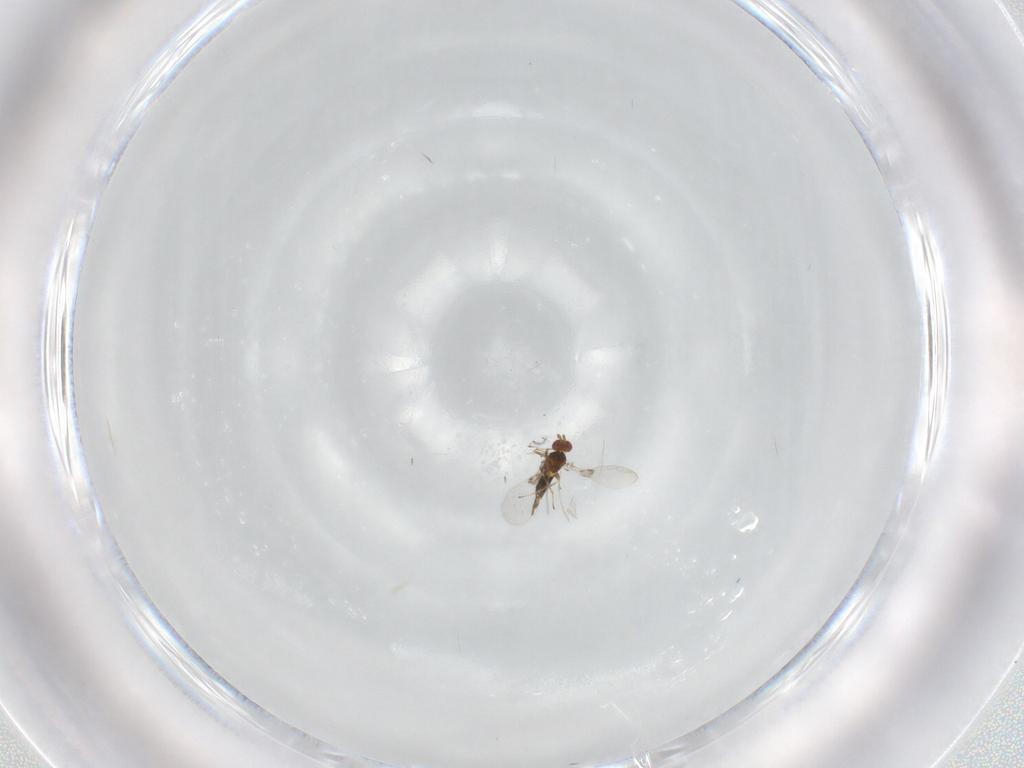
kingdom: Animalia
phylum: Arthropoda
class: Insecta
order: Hymenoptera
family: Platygastridae
